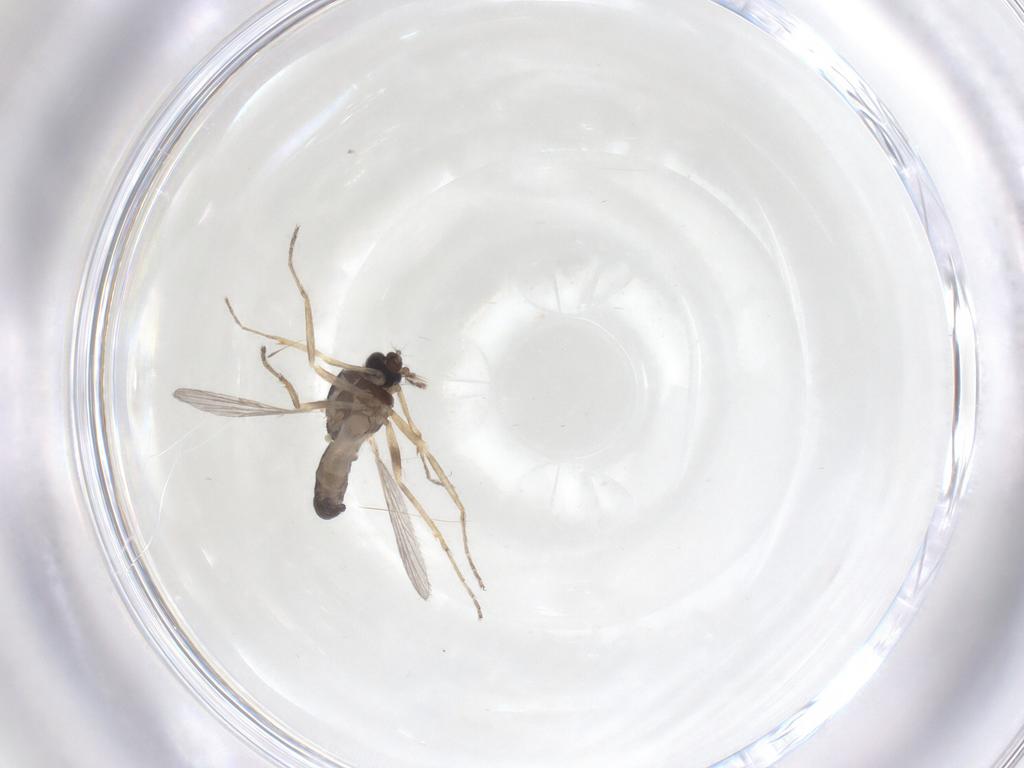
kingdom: Animalia
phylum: Arthropoda
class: Insecta
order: Diptera
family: Ceratopogonidae
